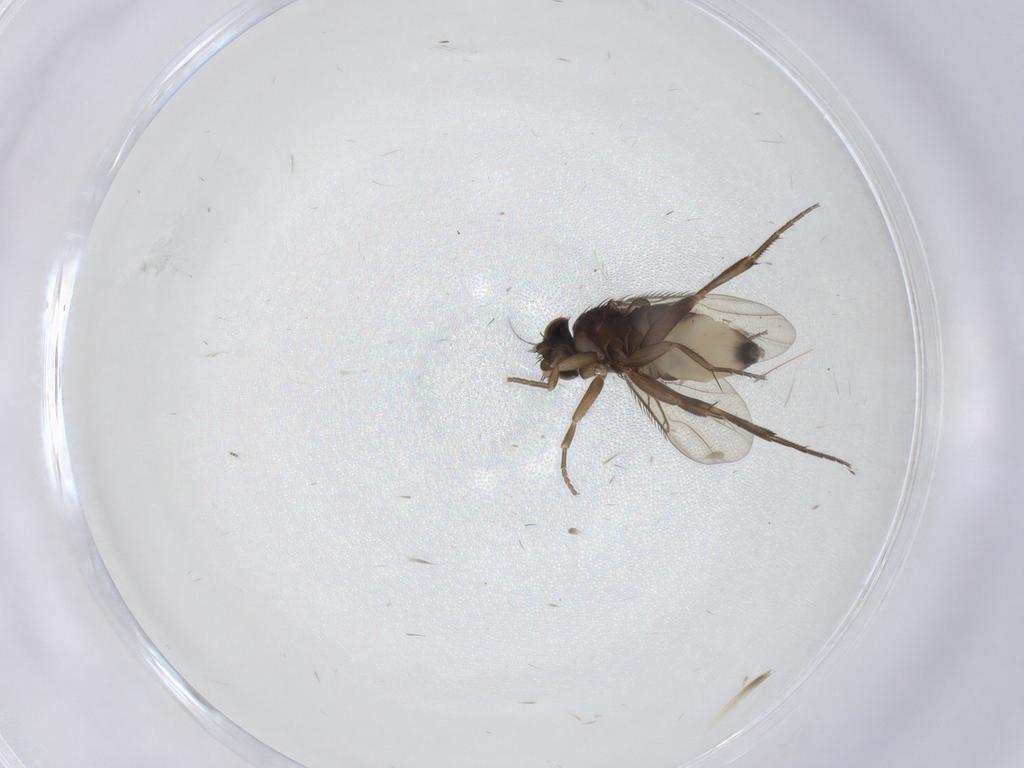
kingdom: Animalia
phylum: Arthropoda
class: Insecta
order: Diptera
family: Phoridae
